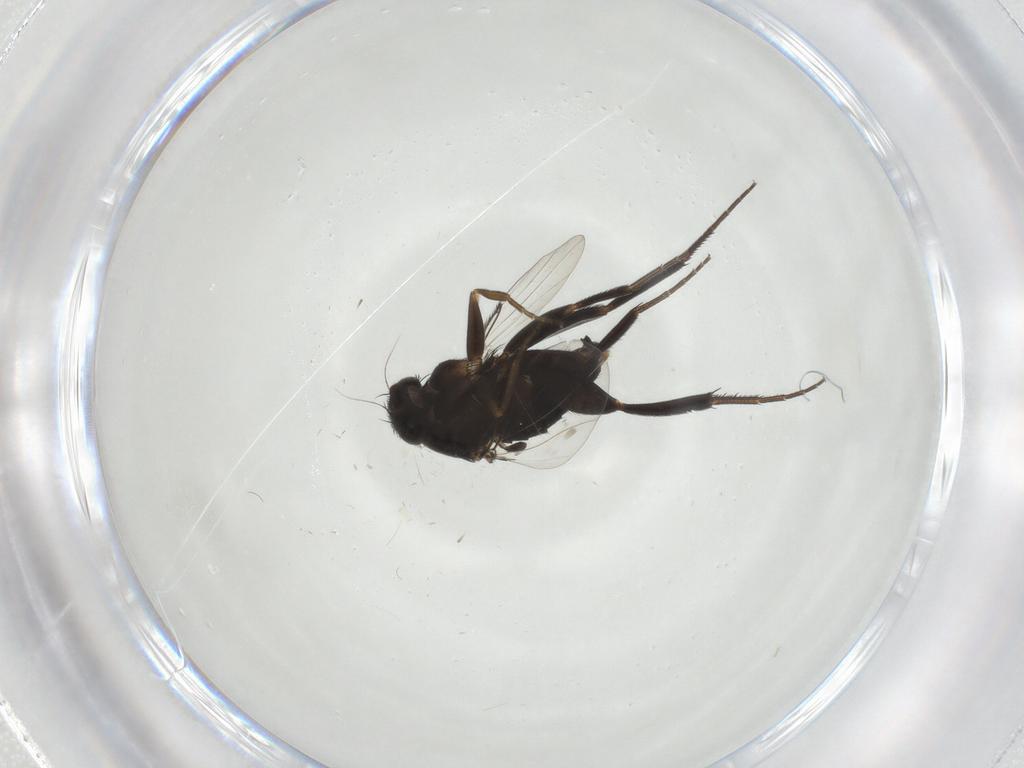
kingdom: Animalia
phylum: Arthropoda
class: Insecta
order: Diptera
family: Phoridae
